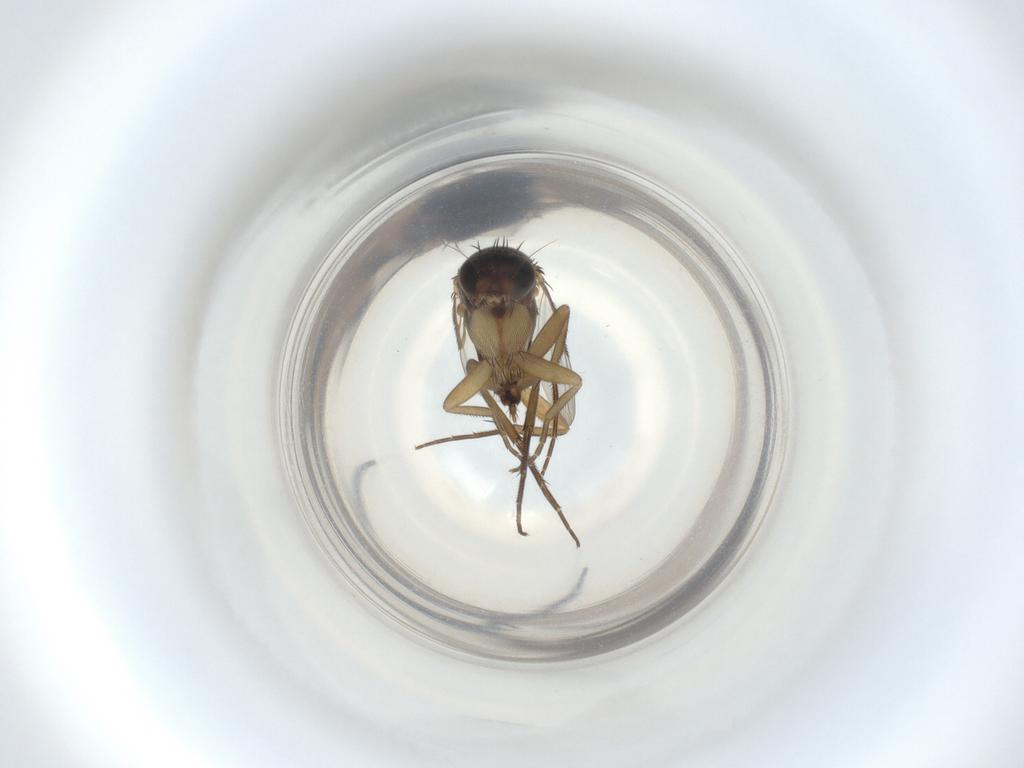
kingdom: Animalia
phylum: Arthropoda
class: Insecta
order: Diptera
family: Phoridae
